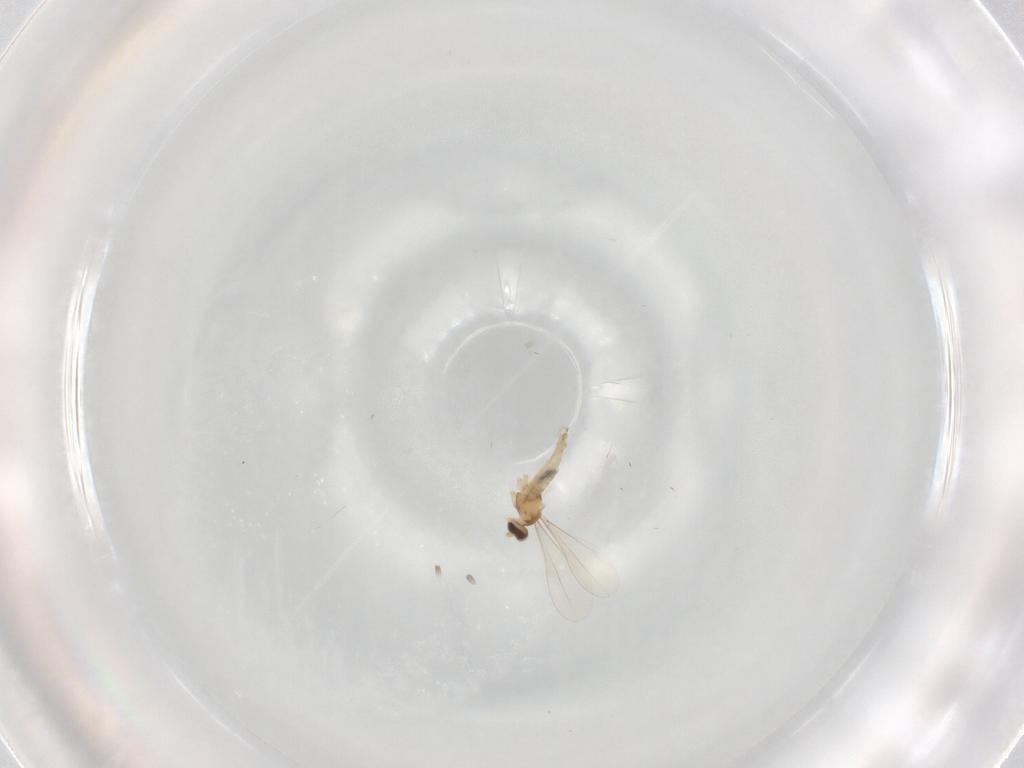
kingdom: Animalia
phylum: Arthropoda
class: Insecta
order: Diptera
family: Cecidomyiidae
